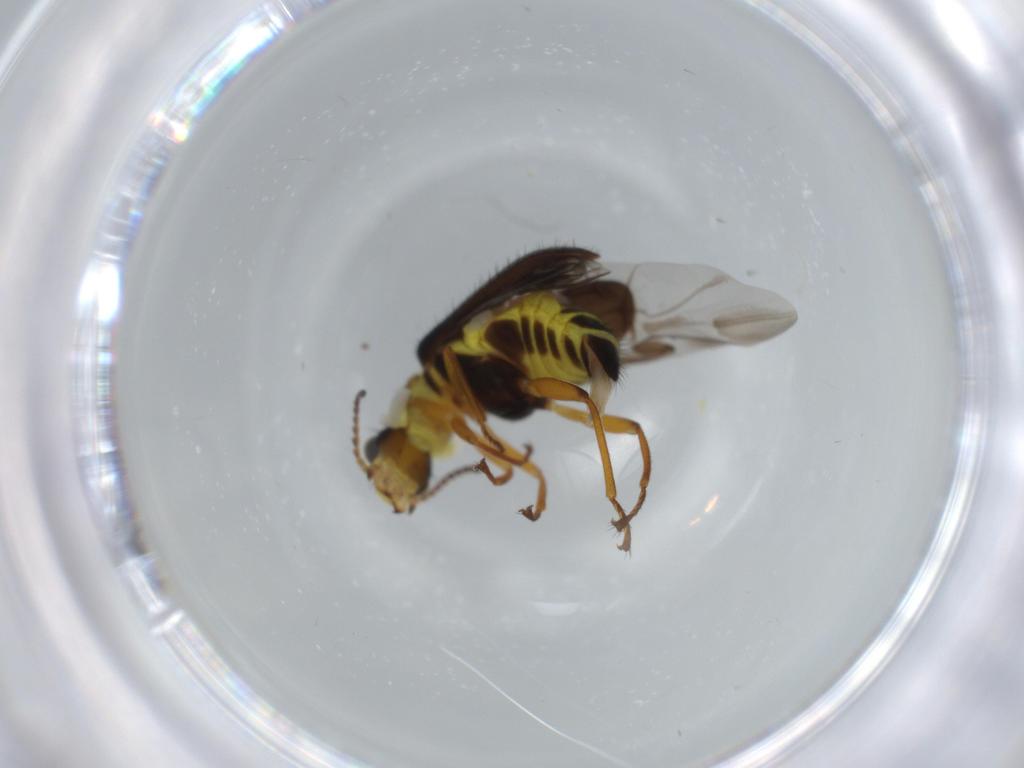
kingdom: Animalia
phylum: Arthropoda
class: Insecta
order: Coleoptera
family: Melyridae
